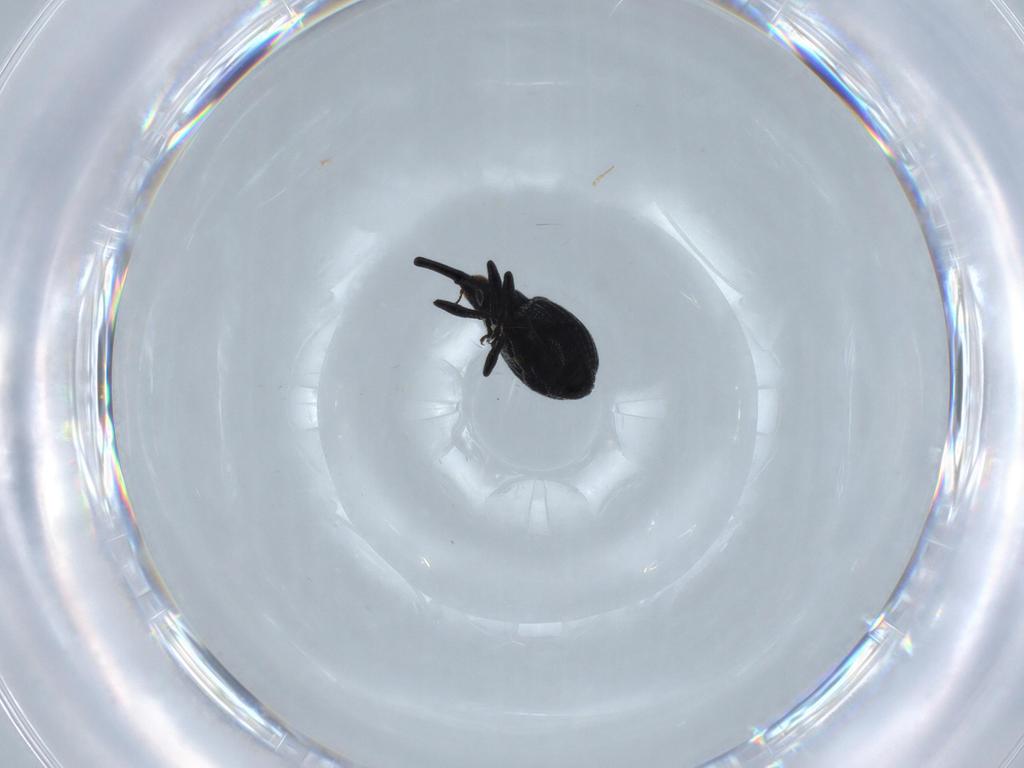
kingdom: Animalia
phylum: Arthropoda
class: Insecta
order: Coleoptera
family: Brentidae
